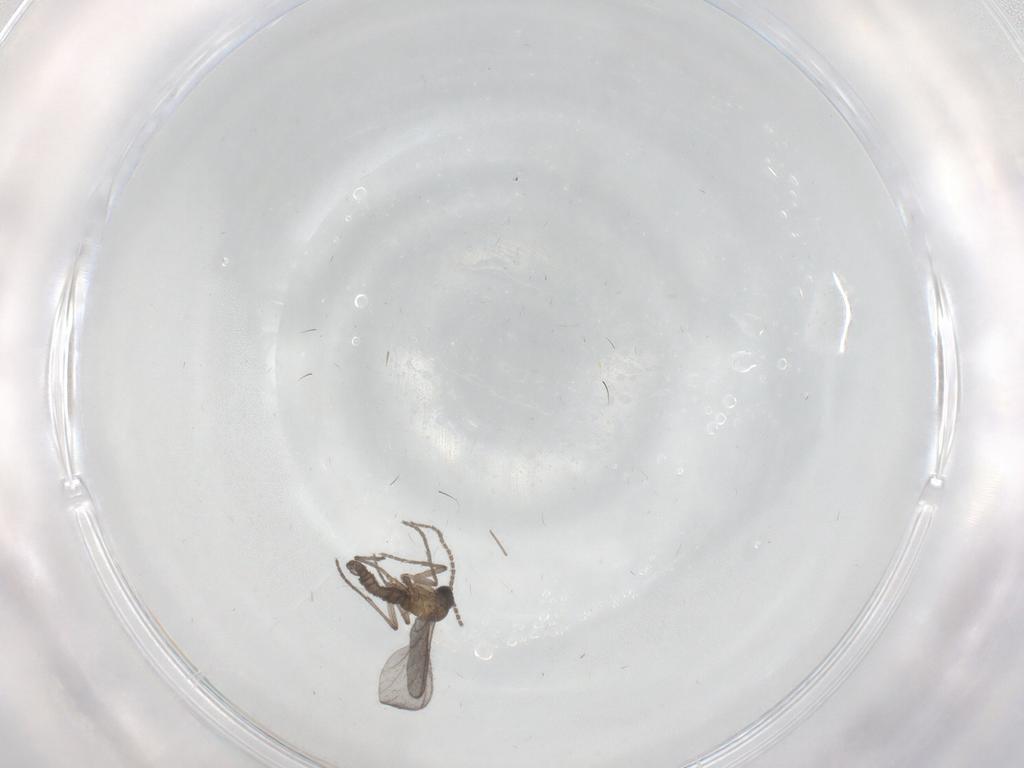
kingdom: Animalia
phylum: Arthropoda
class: Insecta
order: Diptera
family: Sciaridae
